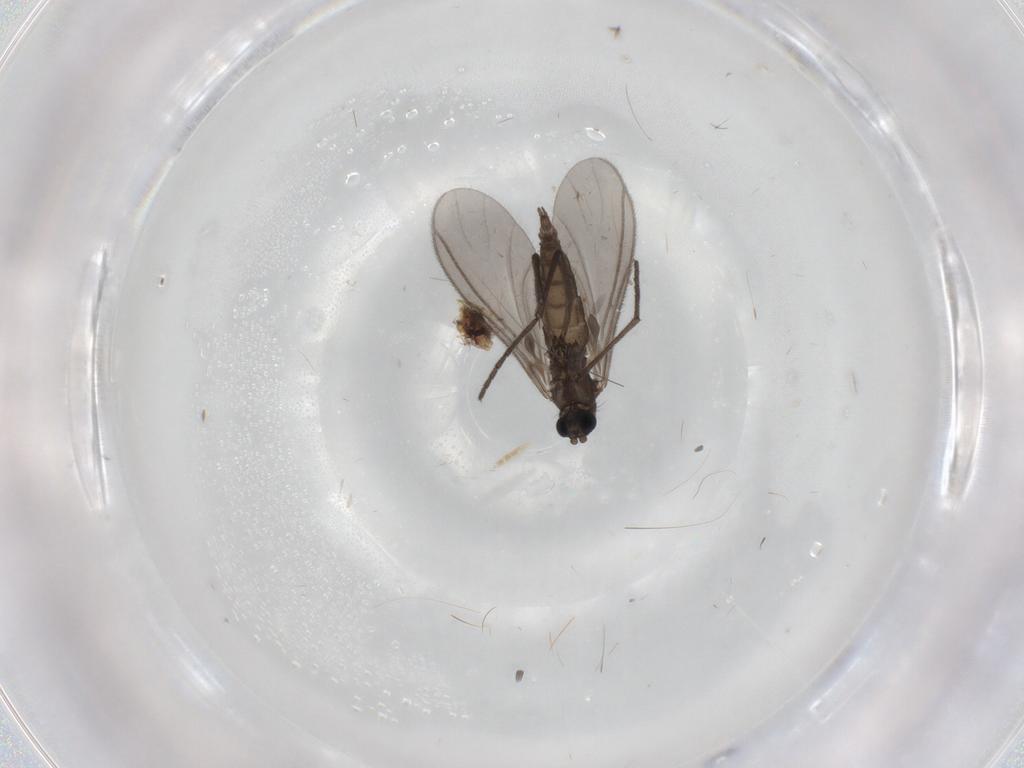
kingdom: Animalia
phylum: Arthropoda
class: Insecta
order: Diptera
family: Sciaridae
